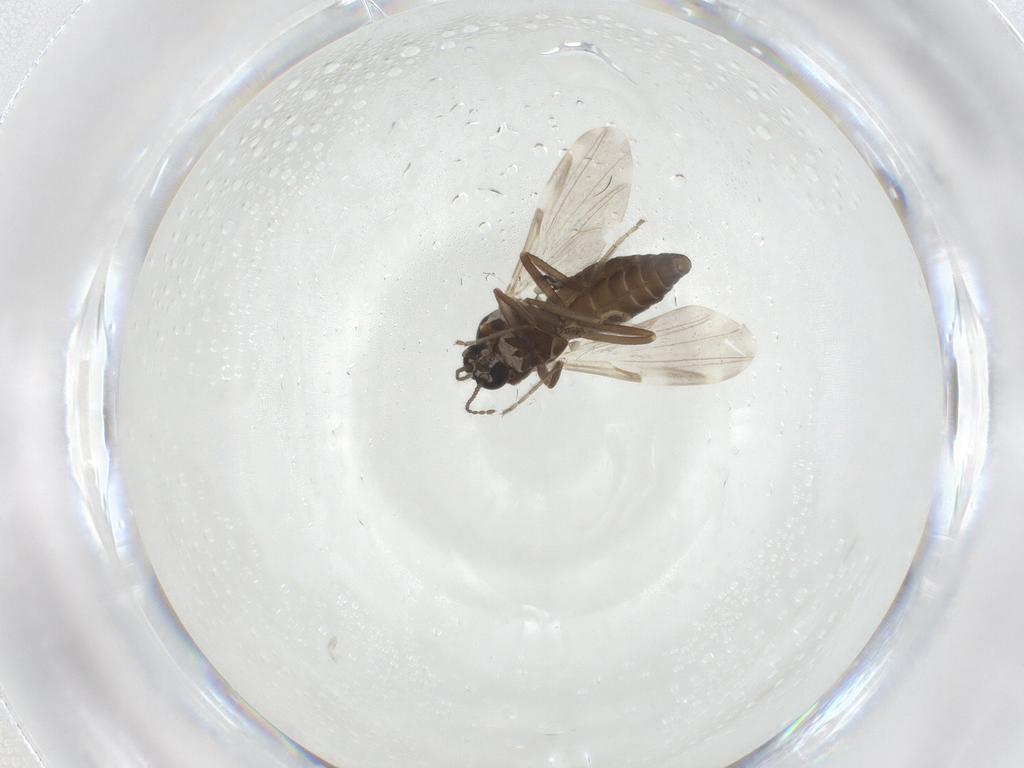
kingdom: Animalia
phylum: Arthropoda
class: Insecta
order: Diptera
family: Ceratopogonidae
